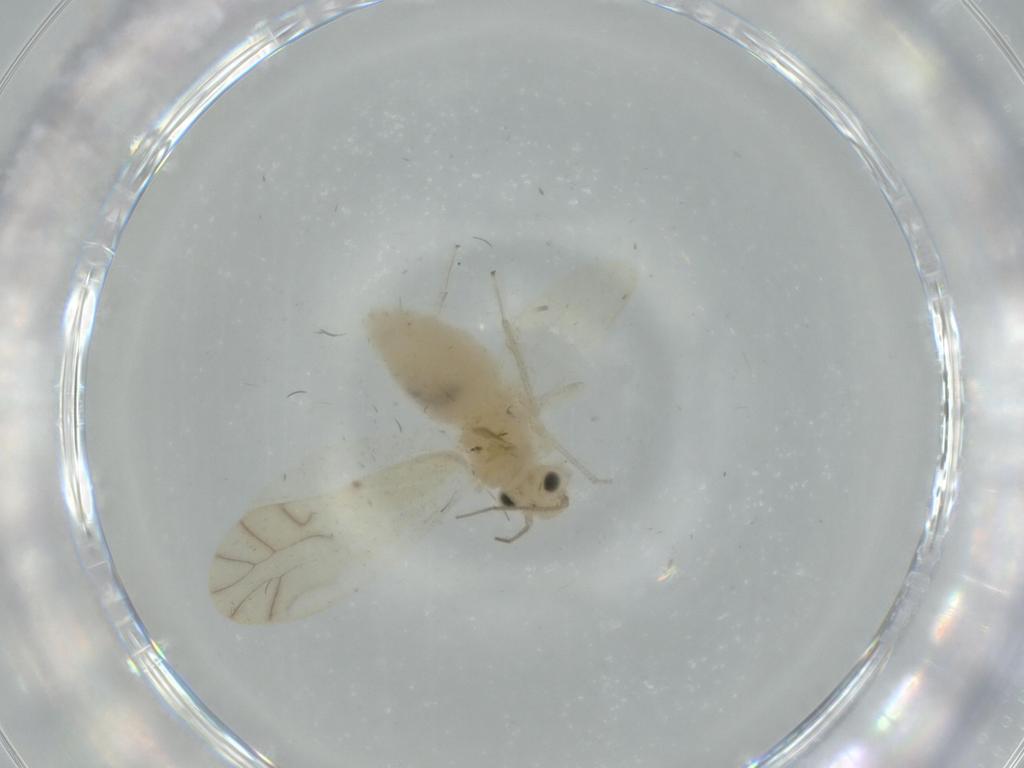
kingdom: Animalia
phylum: Arthropoda
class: Insecta
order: Psocodea
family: Caeciliusidae
